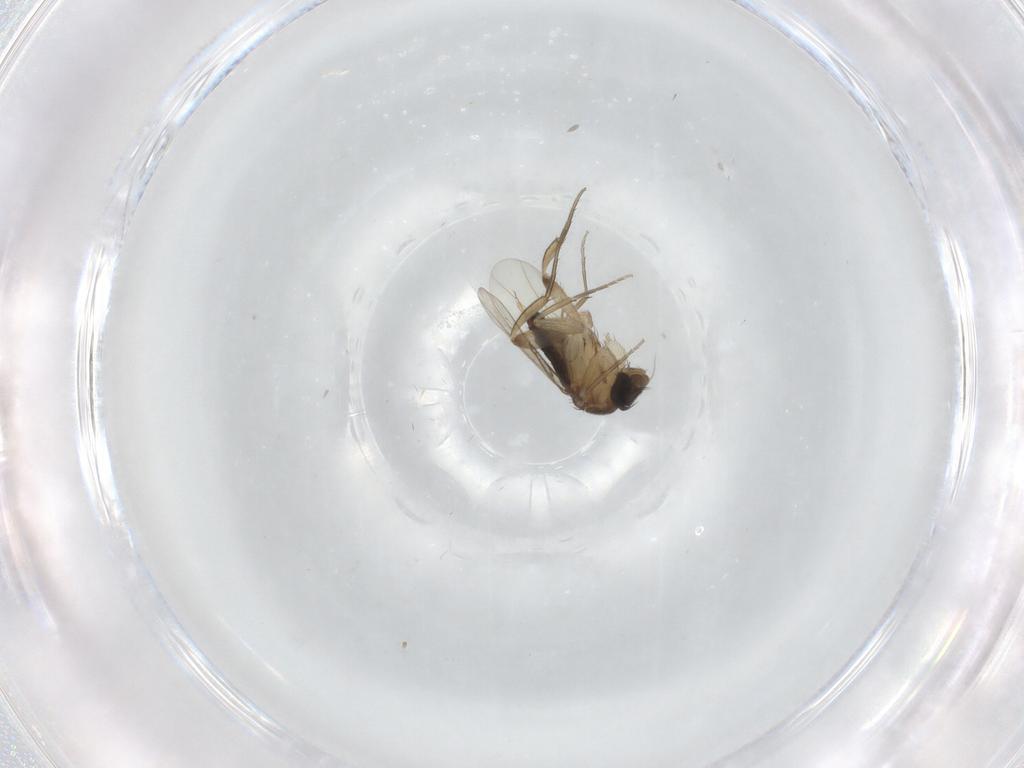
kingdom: Animalia
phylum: Arthropoda
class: Insecta
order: Diptera
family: Phoridae
